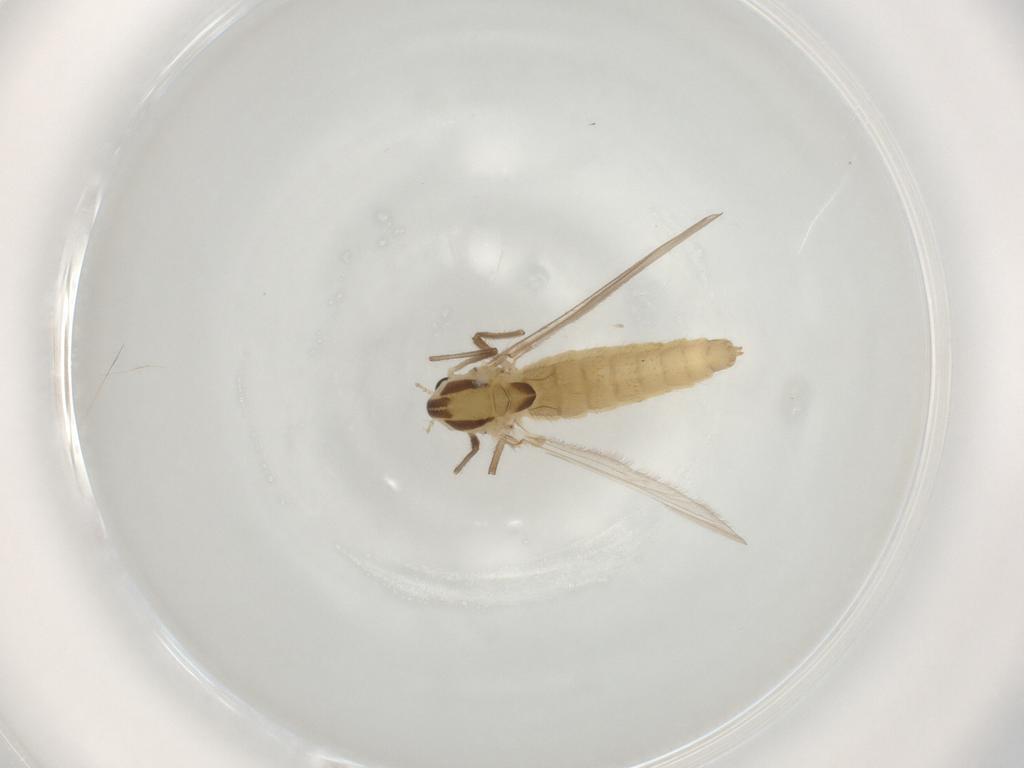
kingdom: Animalia
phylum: Arthropoda
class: Insecta
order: Diptera
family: Chironomidae
